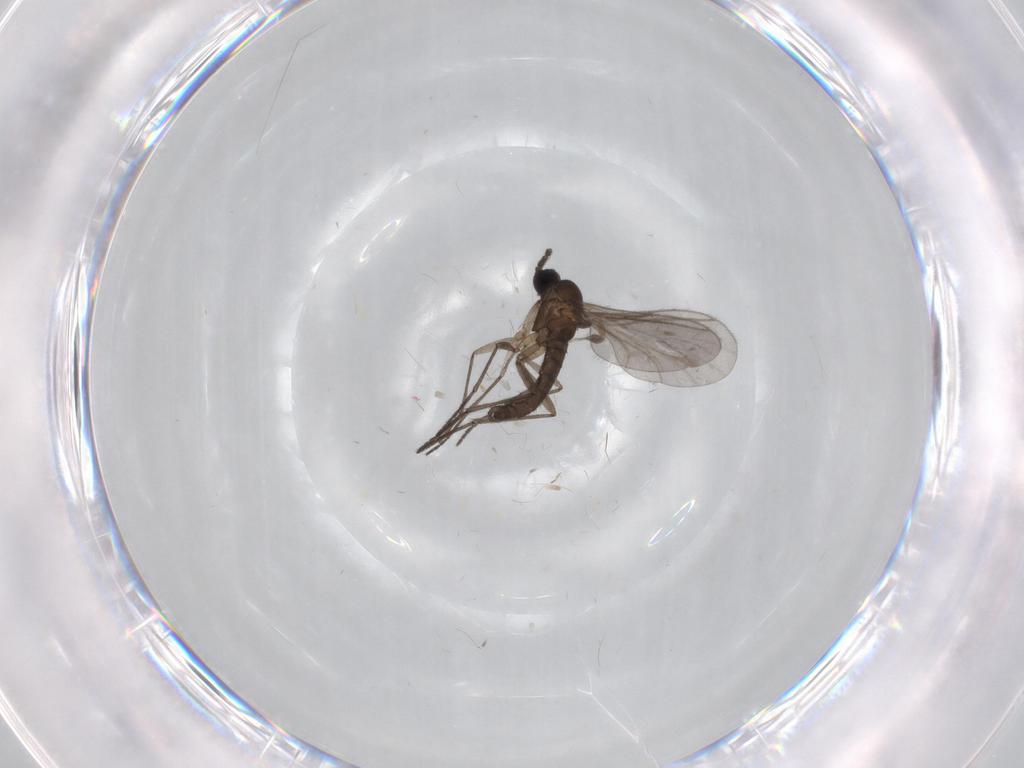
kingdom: Animalia
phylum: Arthropoda
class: Insecta
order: Diptera
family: Cecidomyiidae
